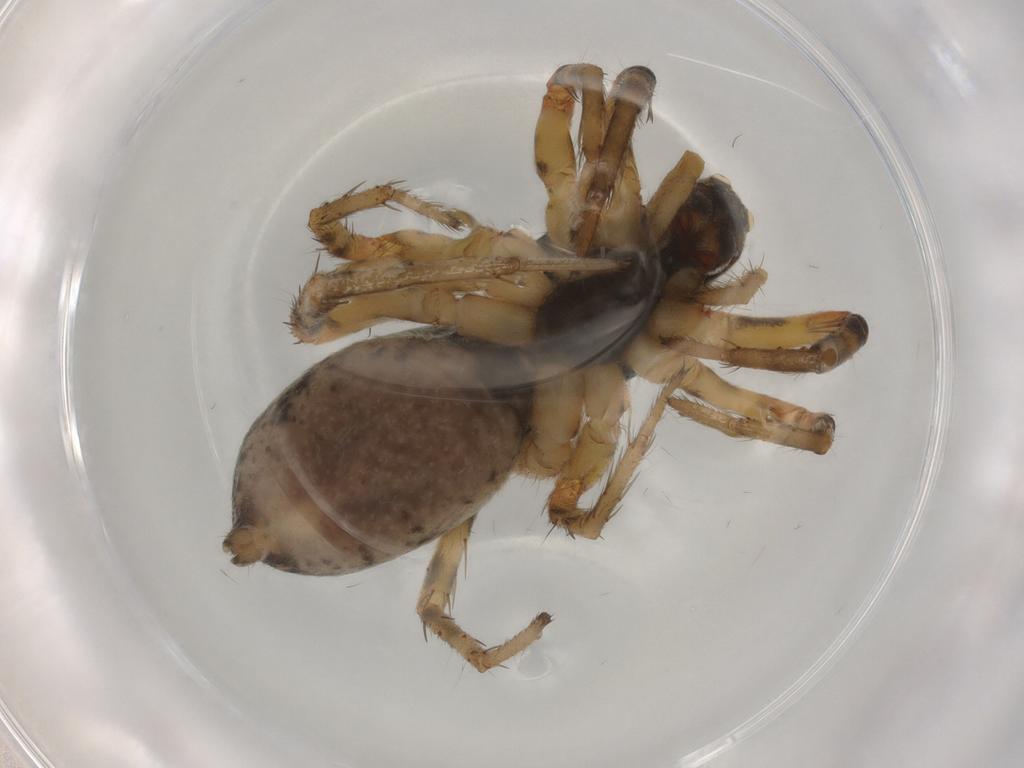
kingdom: Animalia
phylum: Arthropoda
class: Arachnida
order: Araneae
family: Lycosidae
